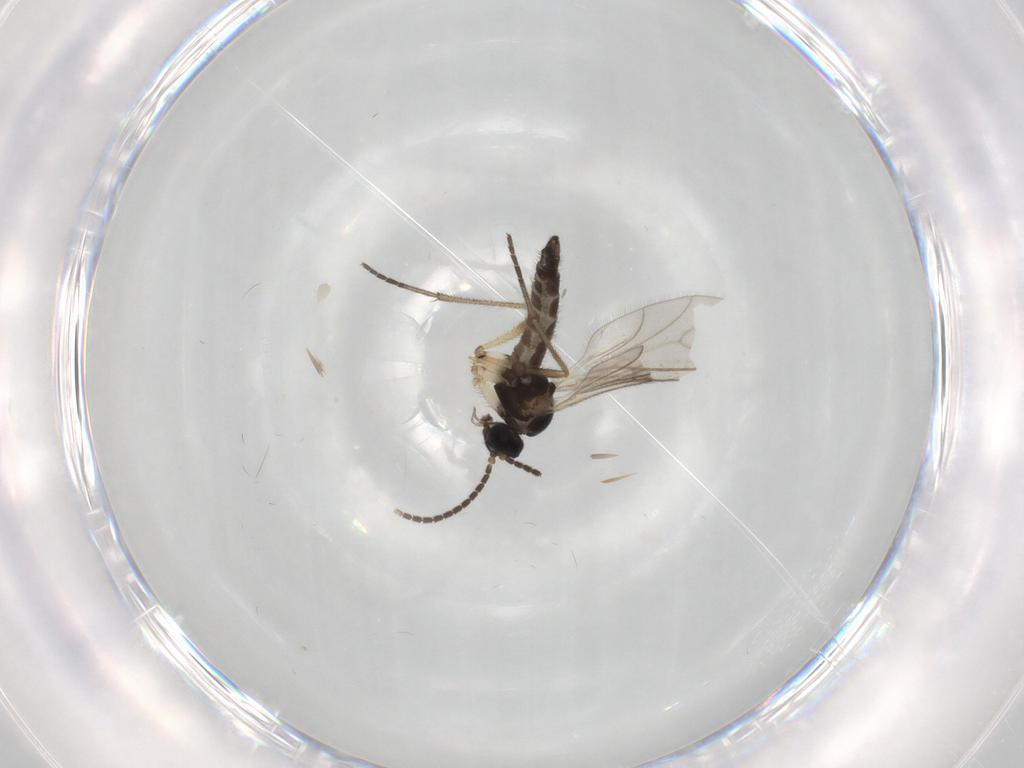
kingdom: Animalia
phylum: Arthropoda
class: Insecta
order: Diptera
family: Sciaridae
